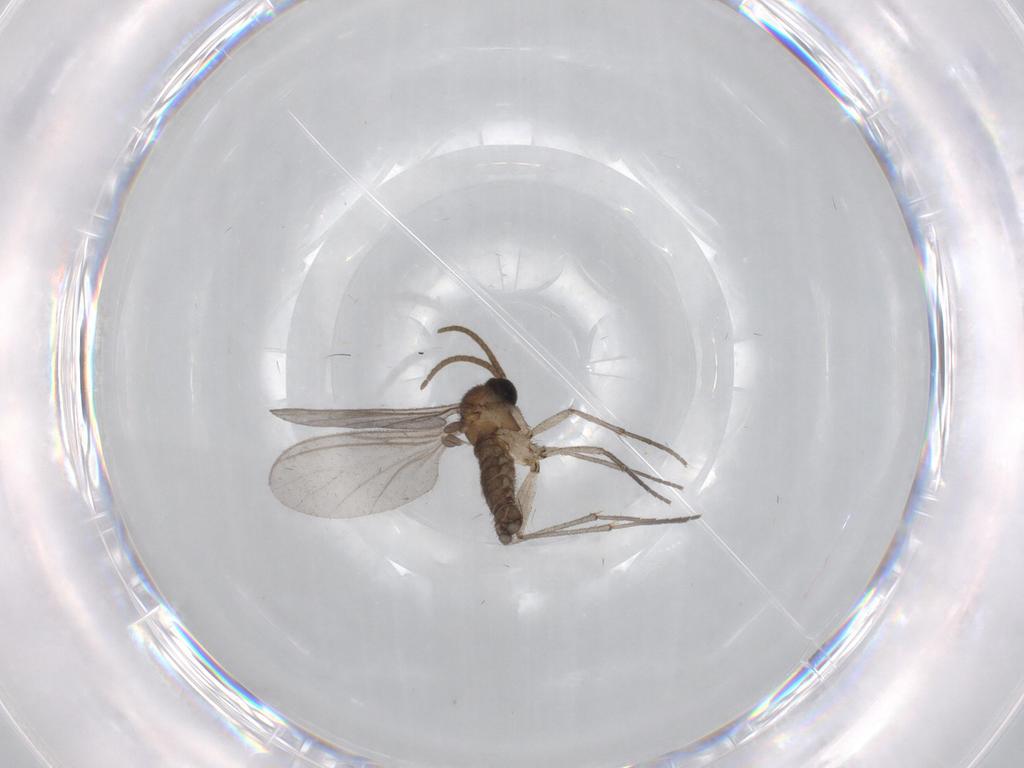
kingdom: Animalia
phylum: Arthropoda
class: Insecta
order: Diptera
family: Cecidomyiidae
